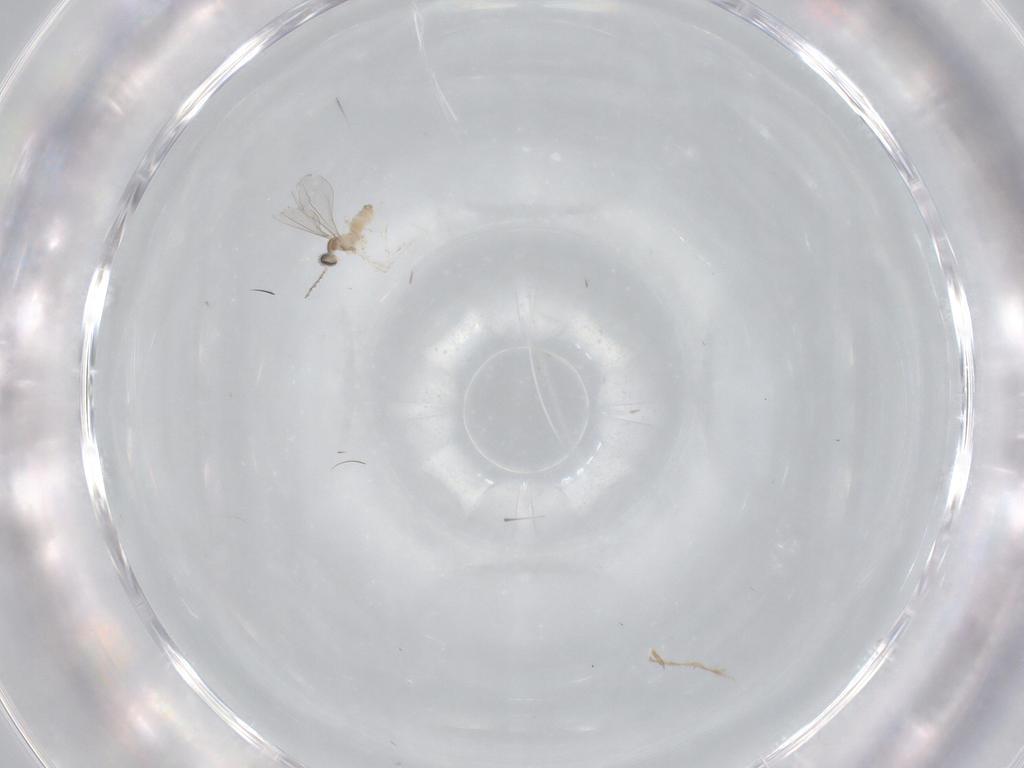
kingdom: Animalia
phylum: Arthropoda
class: Insecta
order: Diptera
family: Cecidomyiidae
